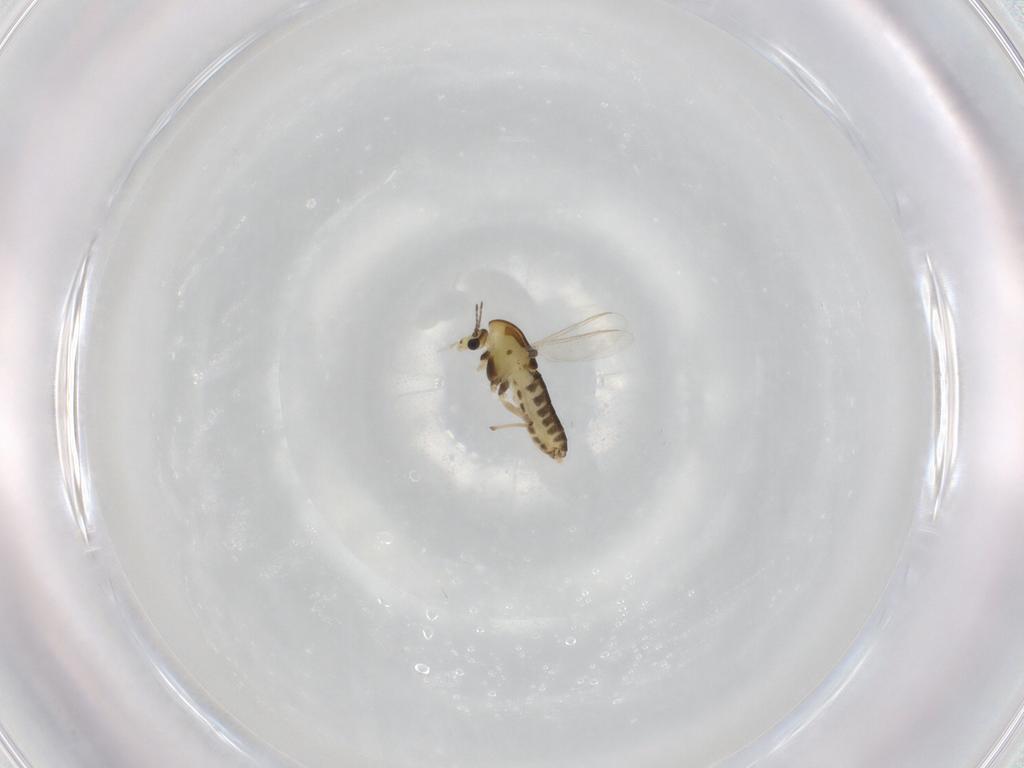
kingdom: Animalia
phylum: Arthropoda
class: Insecta
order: Diptera
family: Chironomidae
